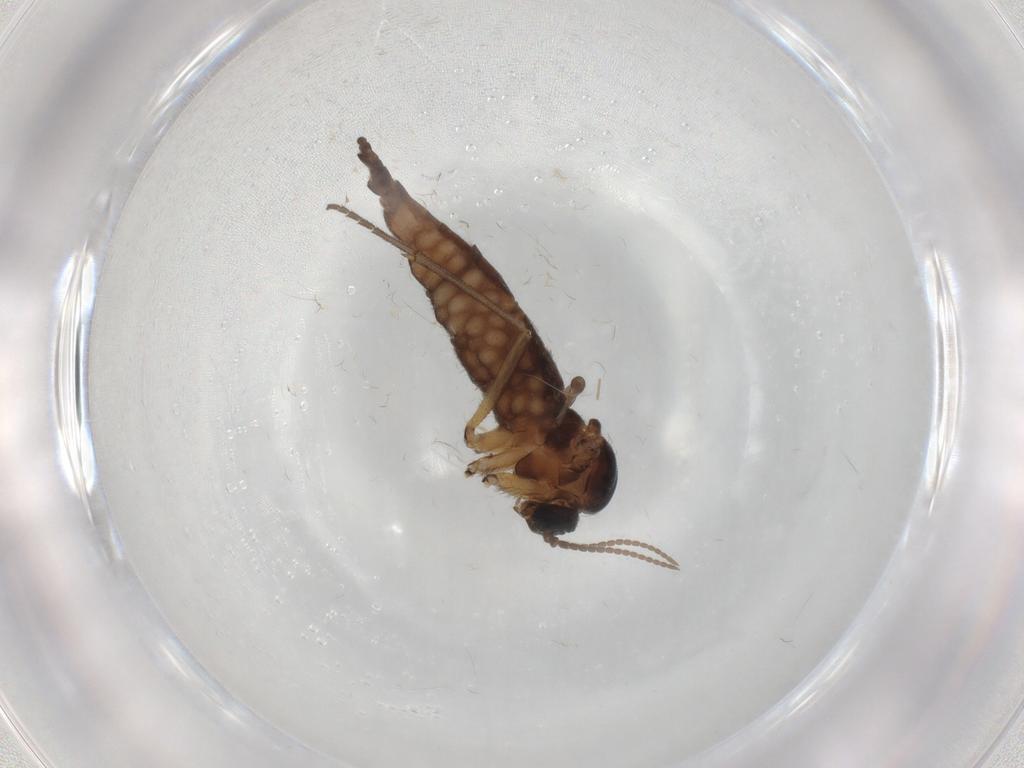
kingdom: Animalia
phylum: Arthropoda
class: Insecta
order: Diptera
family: Sciaridae
